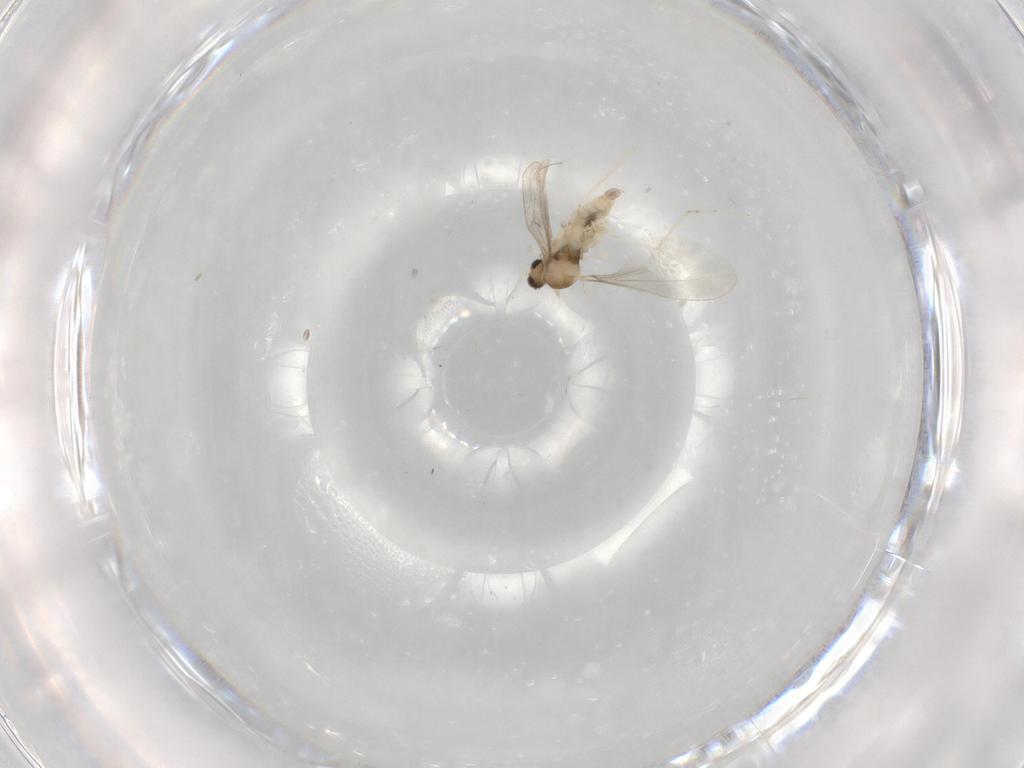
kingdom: Animalia
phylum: Arthropoda
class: Insecta
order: Diptera
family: Cecidomyiidae
